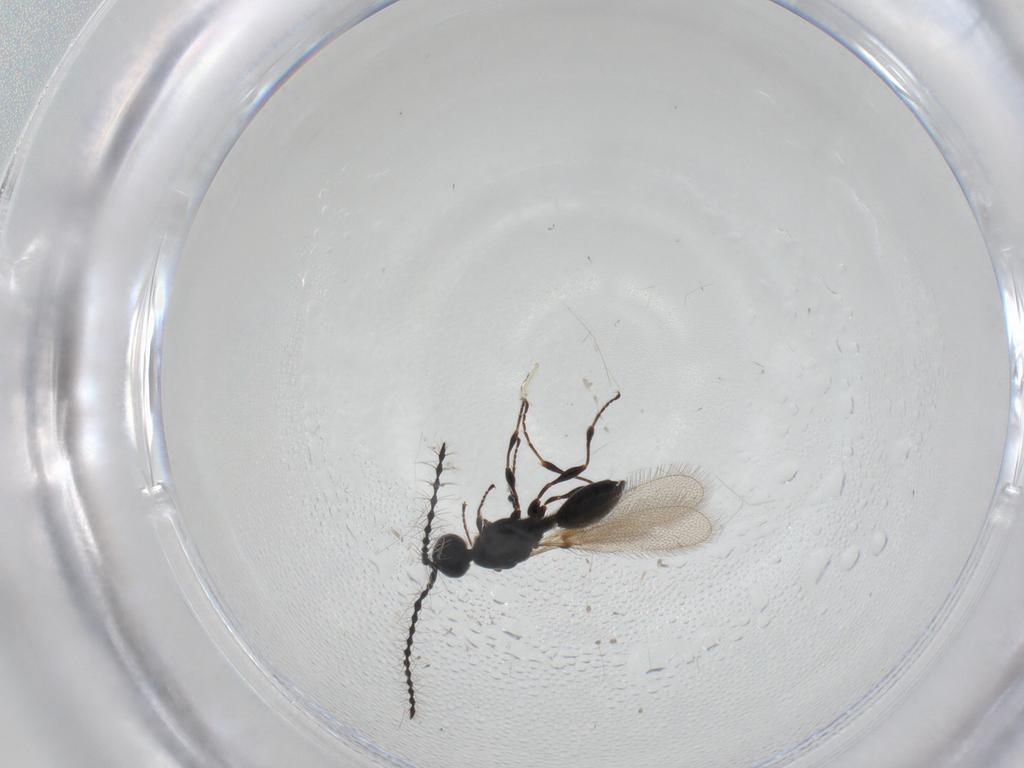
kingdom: Animalia
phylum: Arthropoda
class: Insecta
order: Hymenoptera
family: Diapriidae
